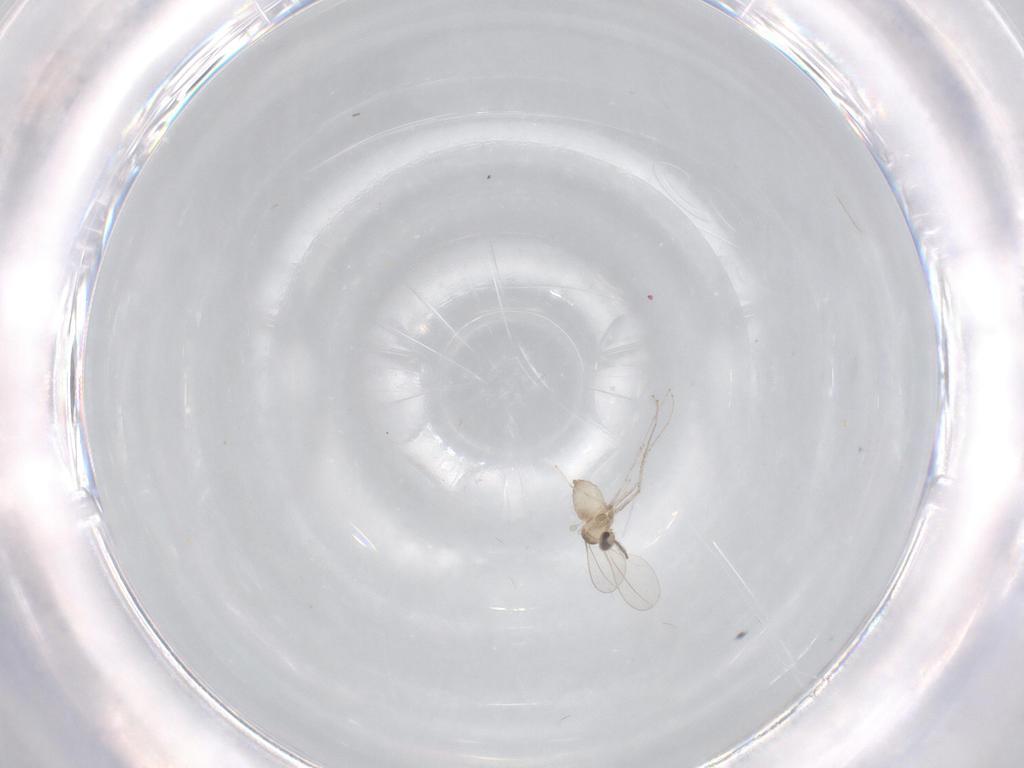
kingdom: Animalia
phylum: Arthropoda
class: Insecta
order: Diptera
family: Cecidomyiidae
